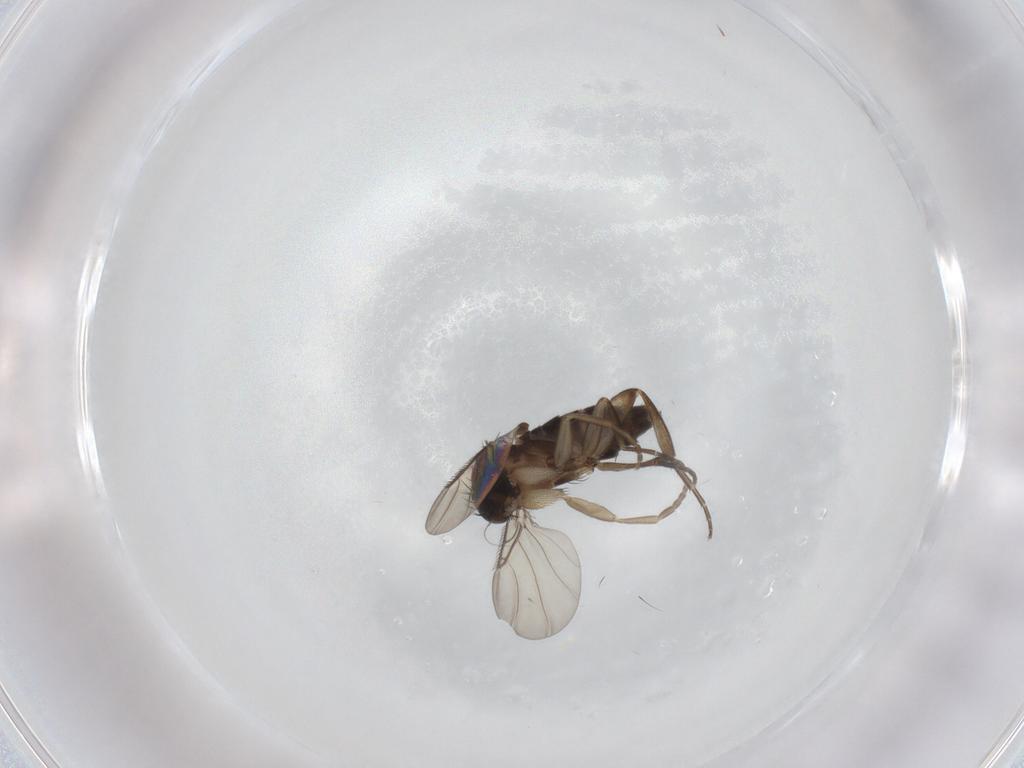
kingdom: Animalia
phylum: Arthropoda
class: Insecta
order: Diptera
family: Phoridae
